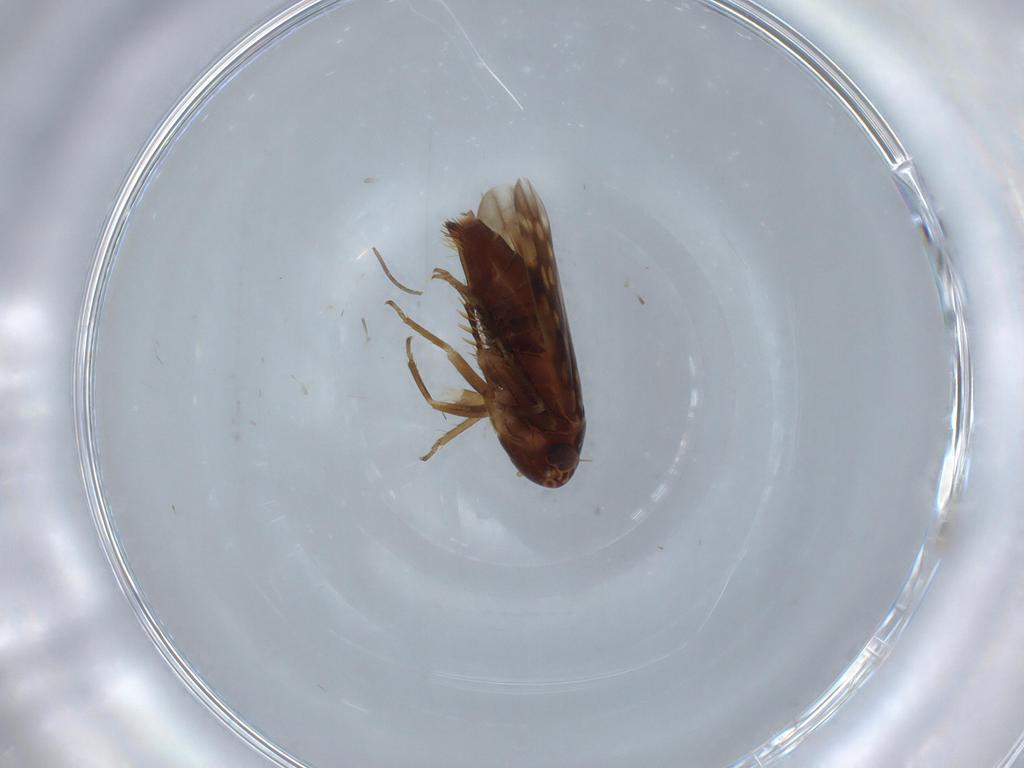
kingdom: Animalia
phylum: Arthropoda
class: Insecta
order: Hemiptera
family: Cicadellidae
